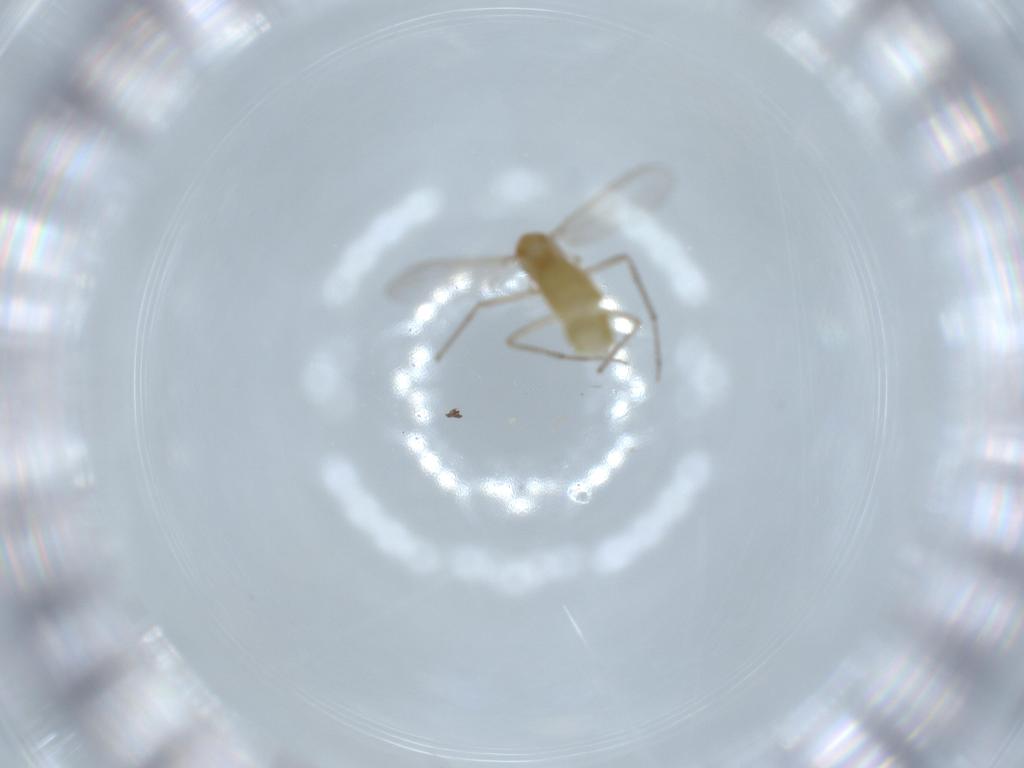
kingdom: Animalia
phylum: Arthropoda
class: Insecta
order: Diptera
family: Chironomidae
